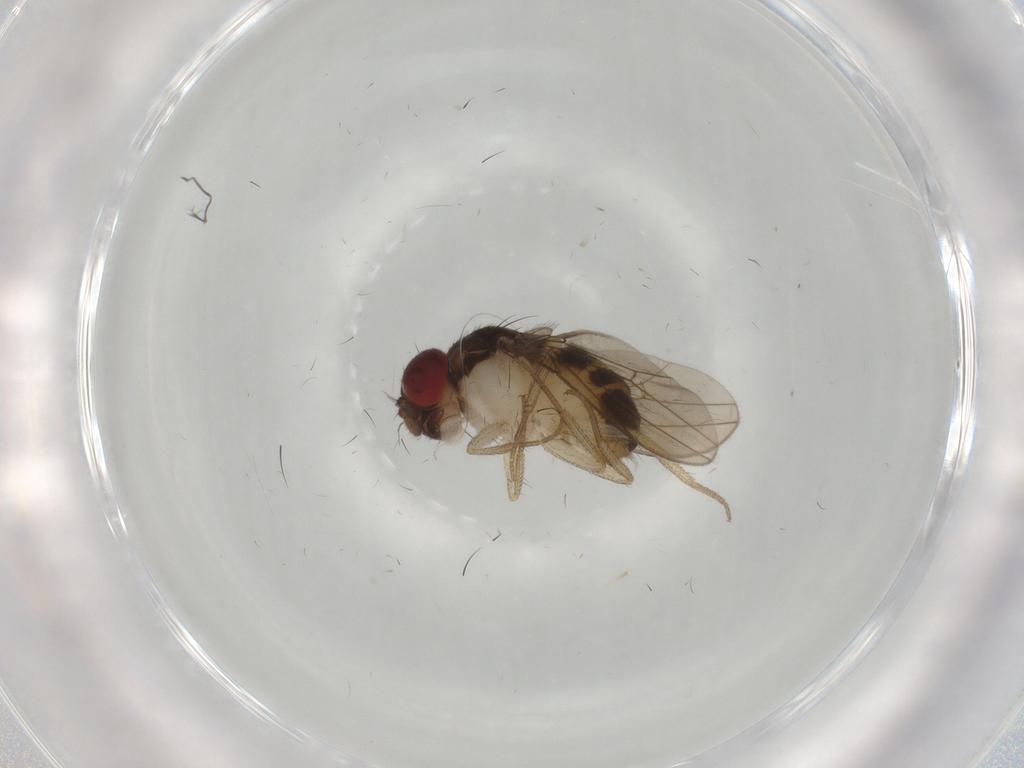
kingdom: Animalia
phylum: Arthropoda
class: Insecta
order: Diptera
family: Drosophilidae
